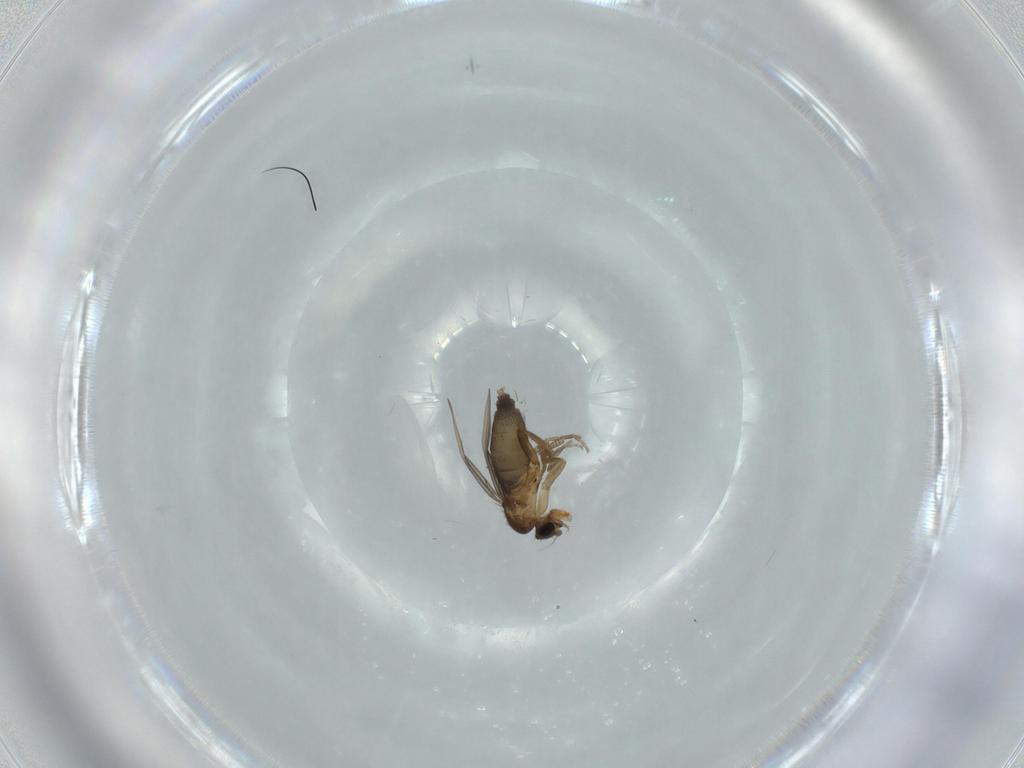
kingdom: Animalia
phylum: Arthropoda
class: Insecta
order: Diptera
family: Phoridae
